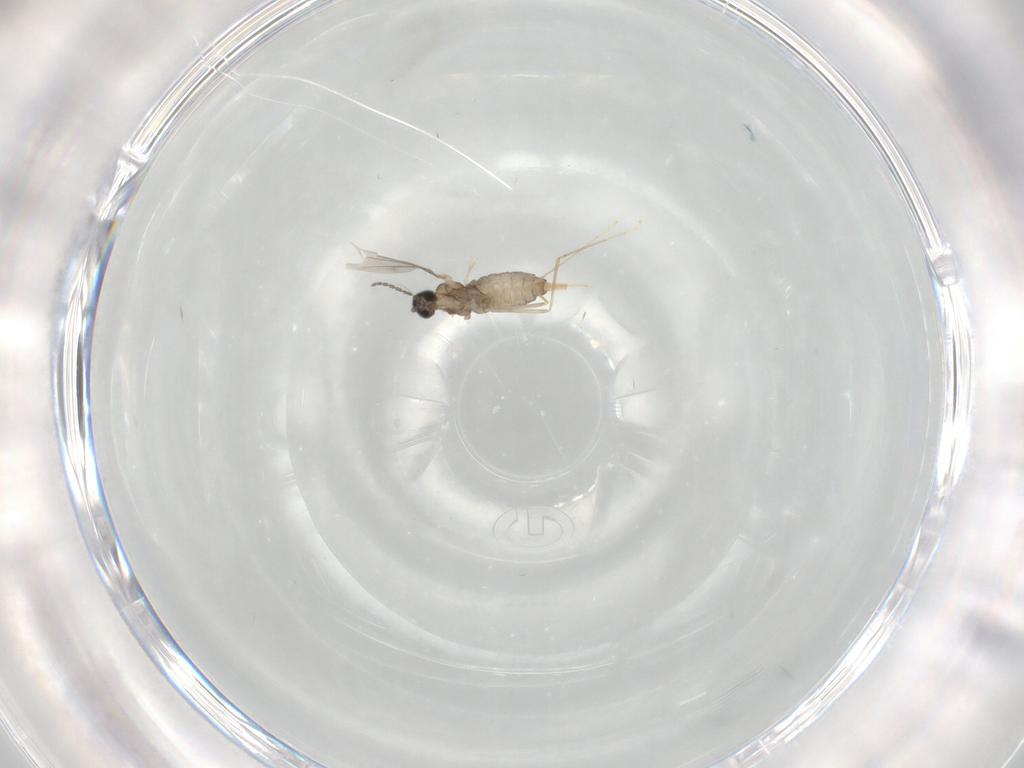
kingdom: Animalia
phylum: Arthropoda
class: Insecta
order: Diptera
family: Cecidomyiidae
